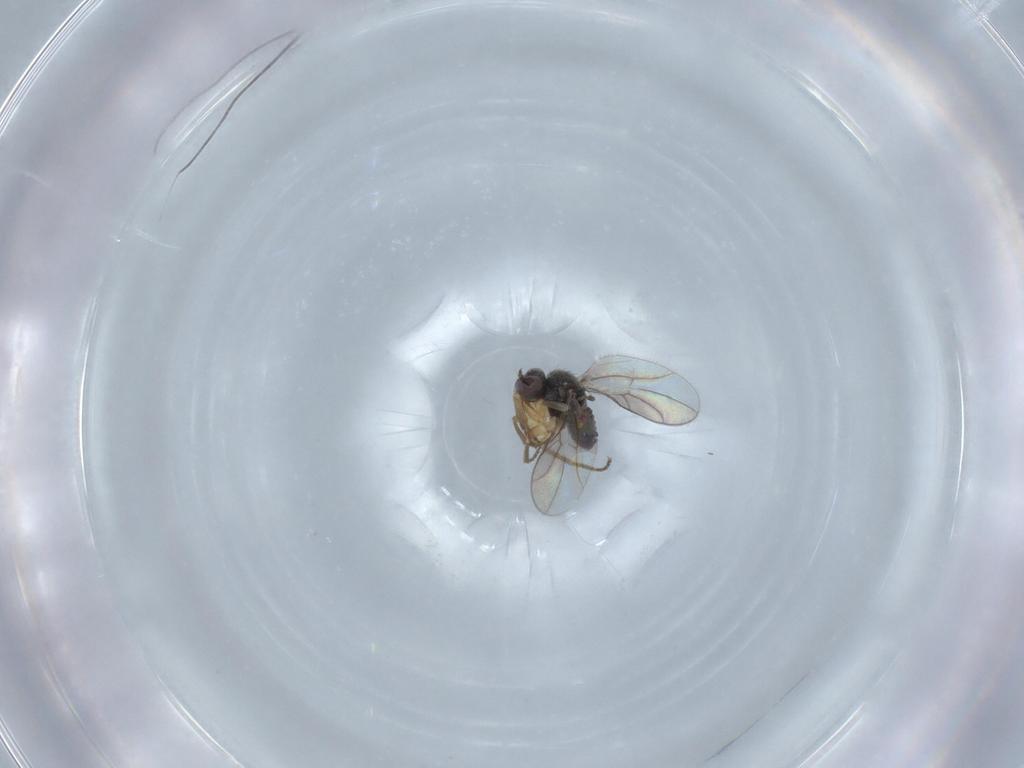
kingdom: Animalia
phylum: Arthropoda
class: Insecta
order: Diptera
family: Hybotidae
